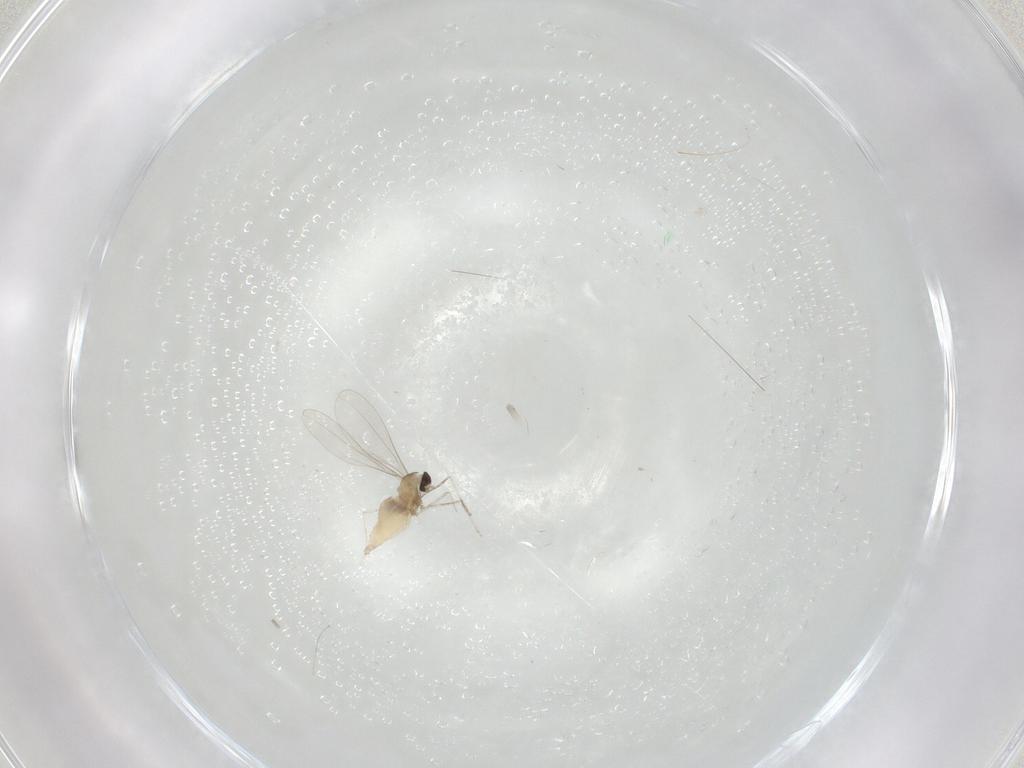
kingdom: Animalia
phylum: Arthropoda
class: Insecta
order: Diptera
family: Cecidomyiidae
